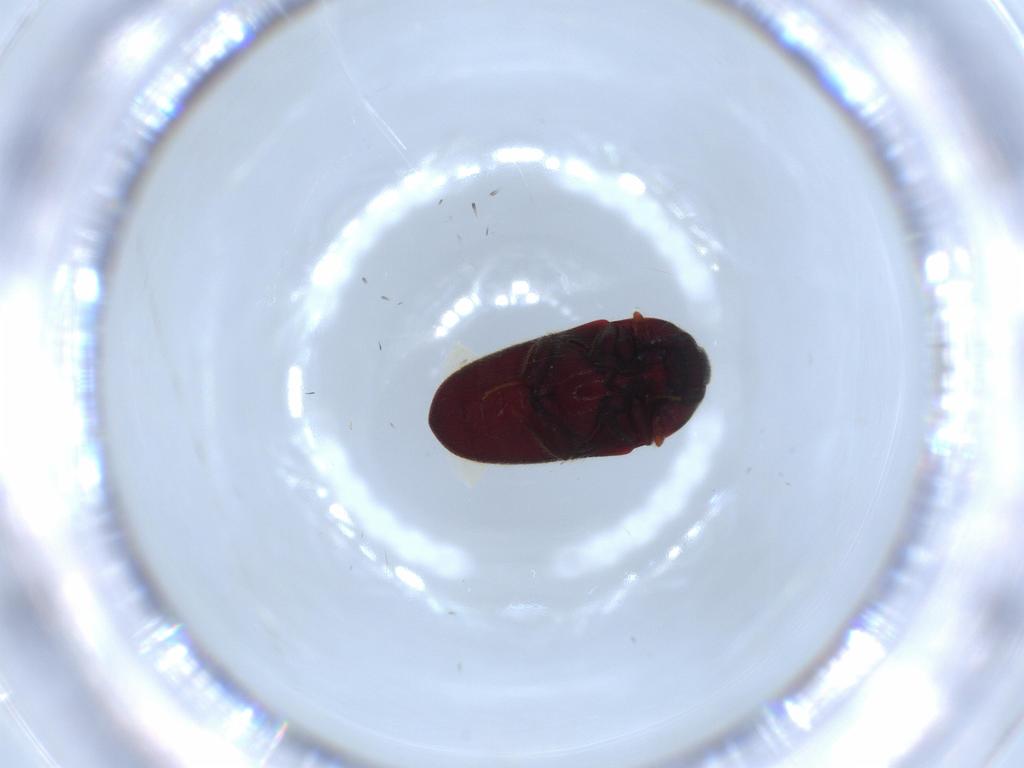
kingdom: Animalia
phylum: Arthropoda
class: Insecta
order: Coleoptera
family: Throscidae
